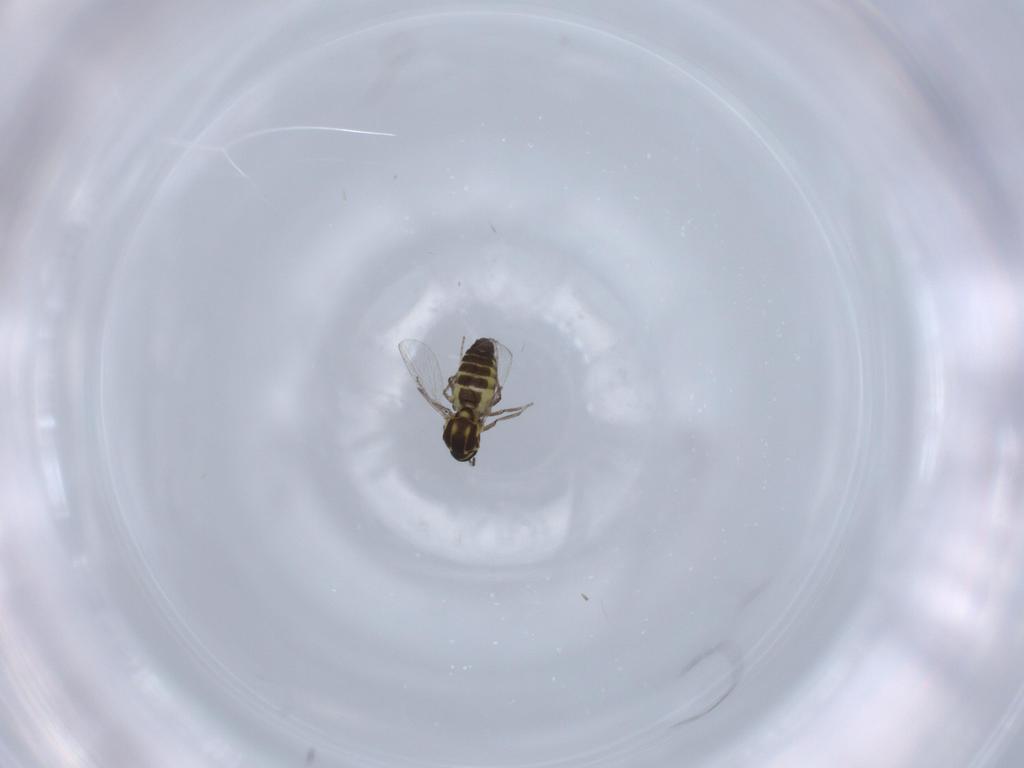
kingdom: Animalia
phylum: Arthropoda
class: Insecta
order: Diptera
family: Ceratopogonidae
